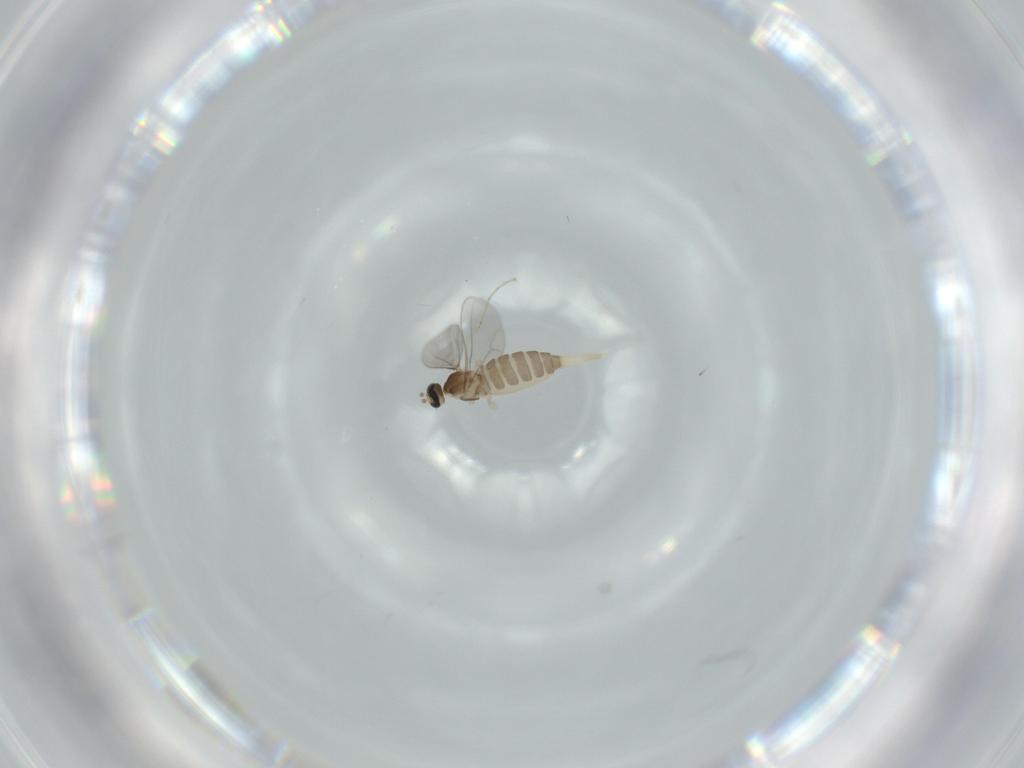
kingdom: Animalia
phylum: Arthropoda
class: Insecta
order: Diptera
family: Cecidomyiidae
